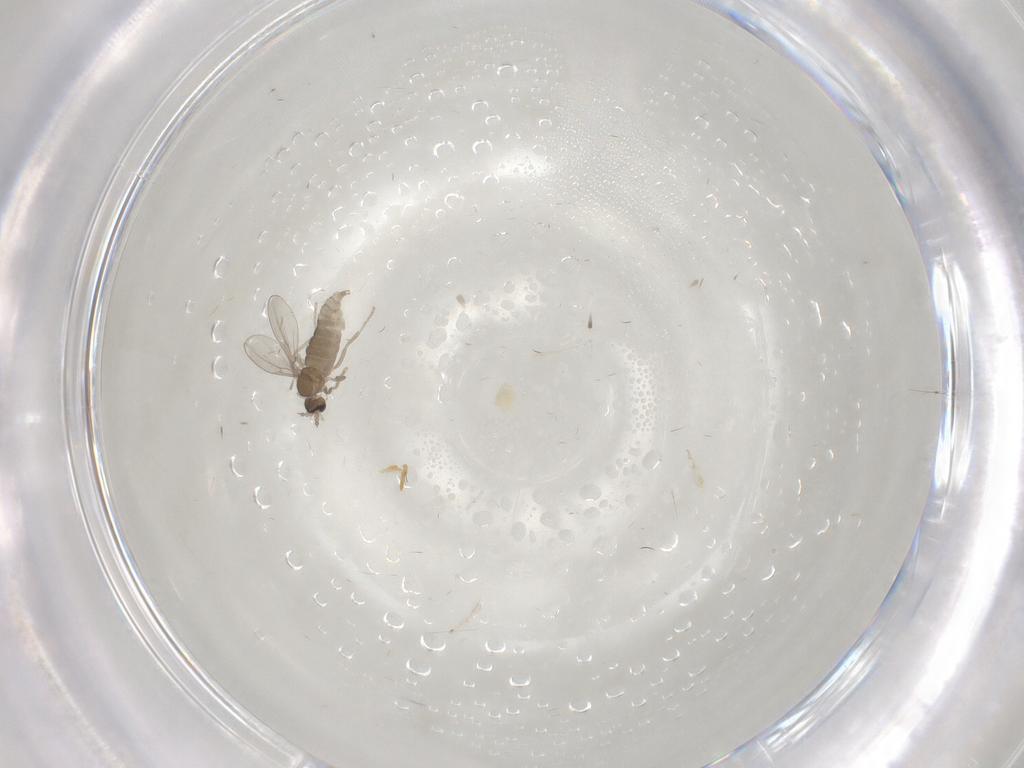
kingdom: Animalia
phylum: Arthropoda
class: Insecta
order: Diptera
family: Cecidomyiidae
